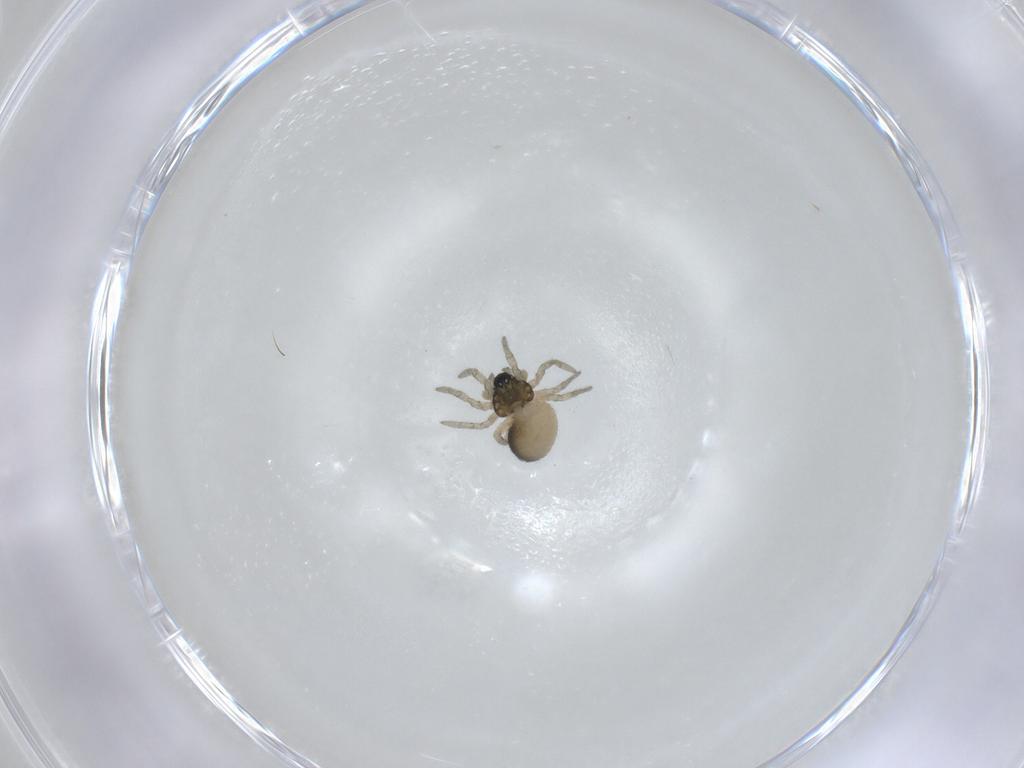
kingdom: Animalia
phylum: Arthropoda
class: Arachnida
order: Araneae
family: Linyphiidae
